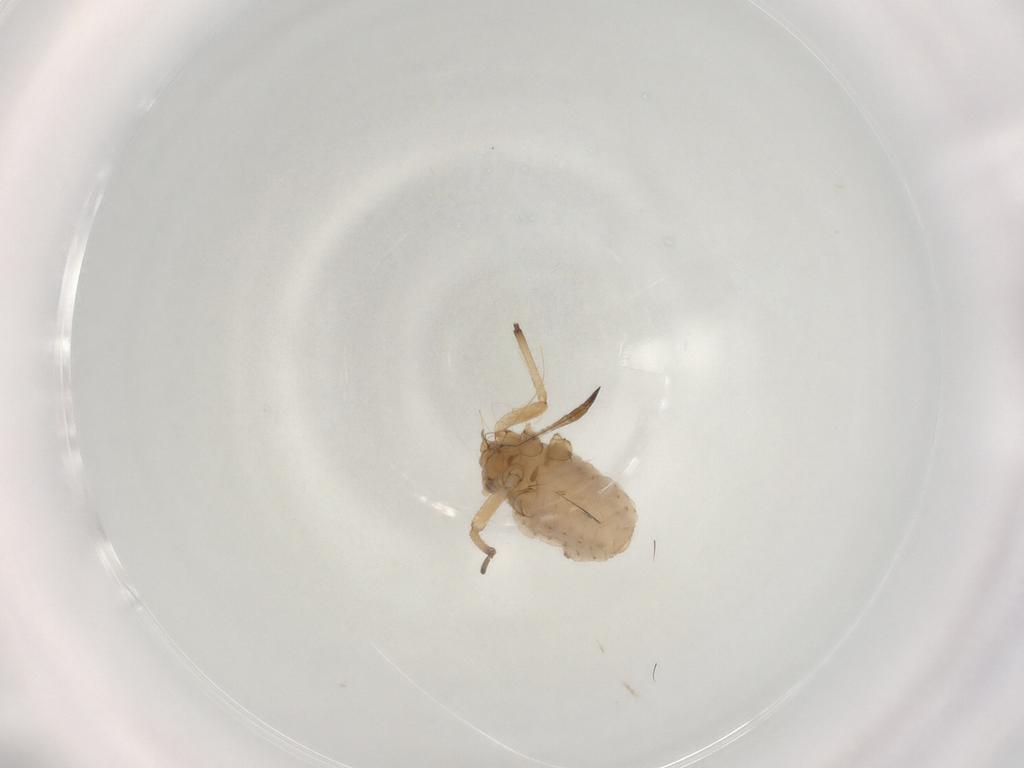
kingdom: Animalia
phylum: Arthropoda
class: Insecta
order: Hemiptera
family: Aphididae
